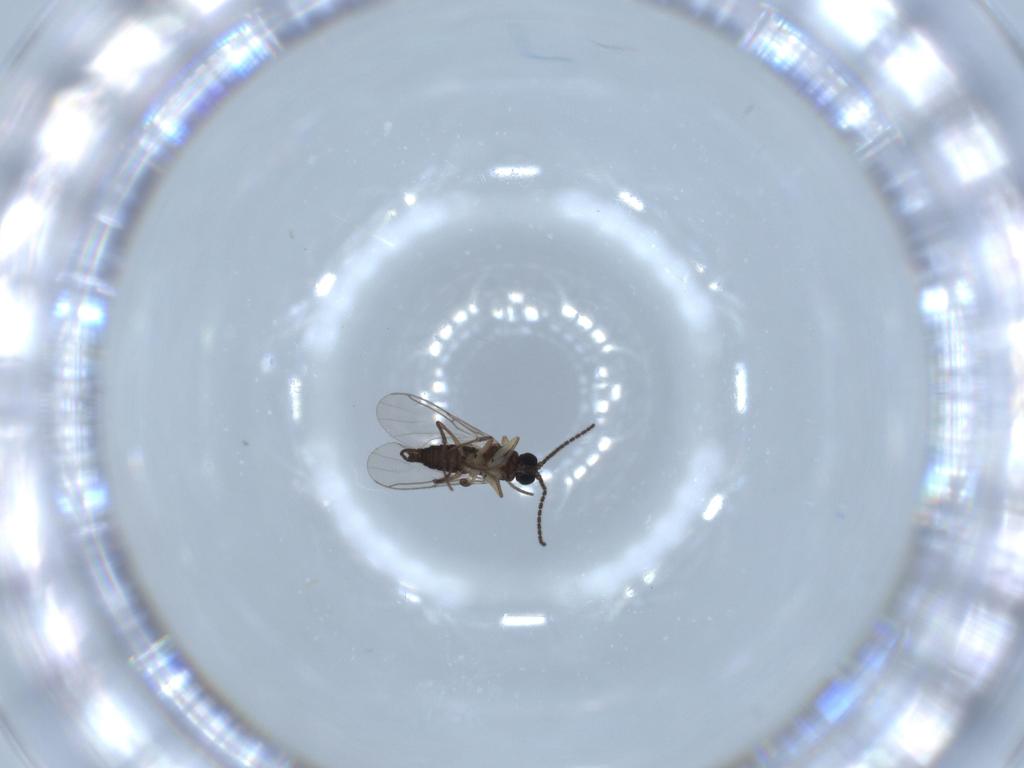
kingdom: Animalia
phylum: Arthropoda
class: Insecta
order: Diptera
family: Sciaridae
